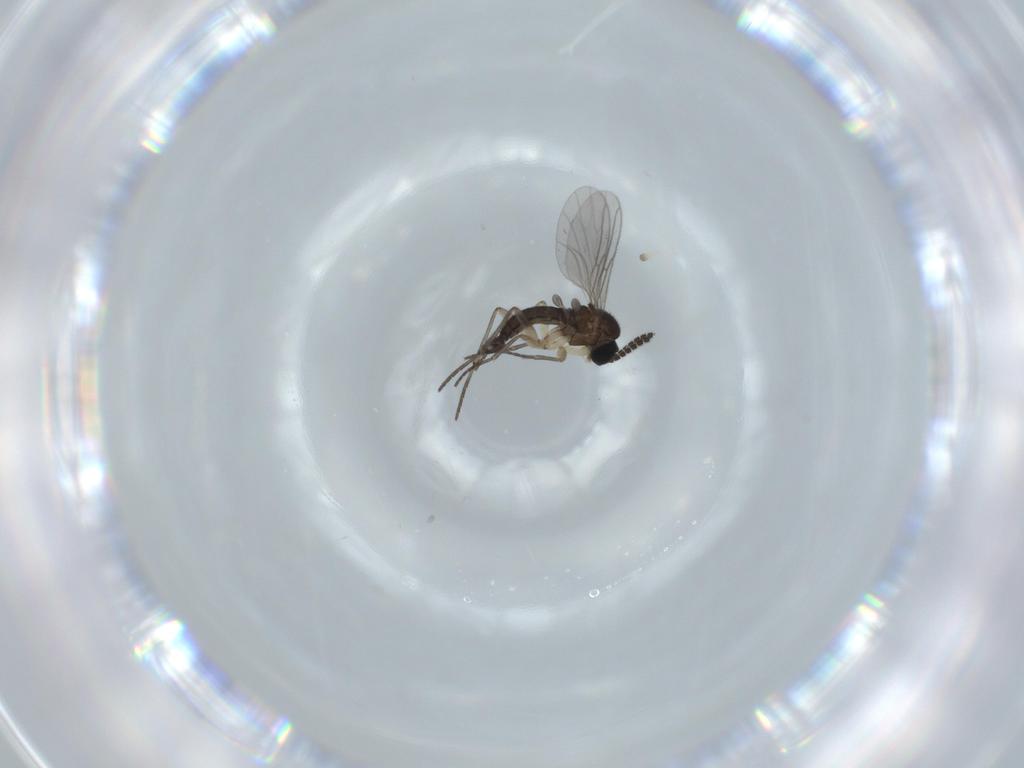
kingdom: Animalia
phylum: Arthropoda
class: Insecta
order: Diptera
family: Sciaridae
